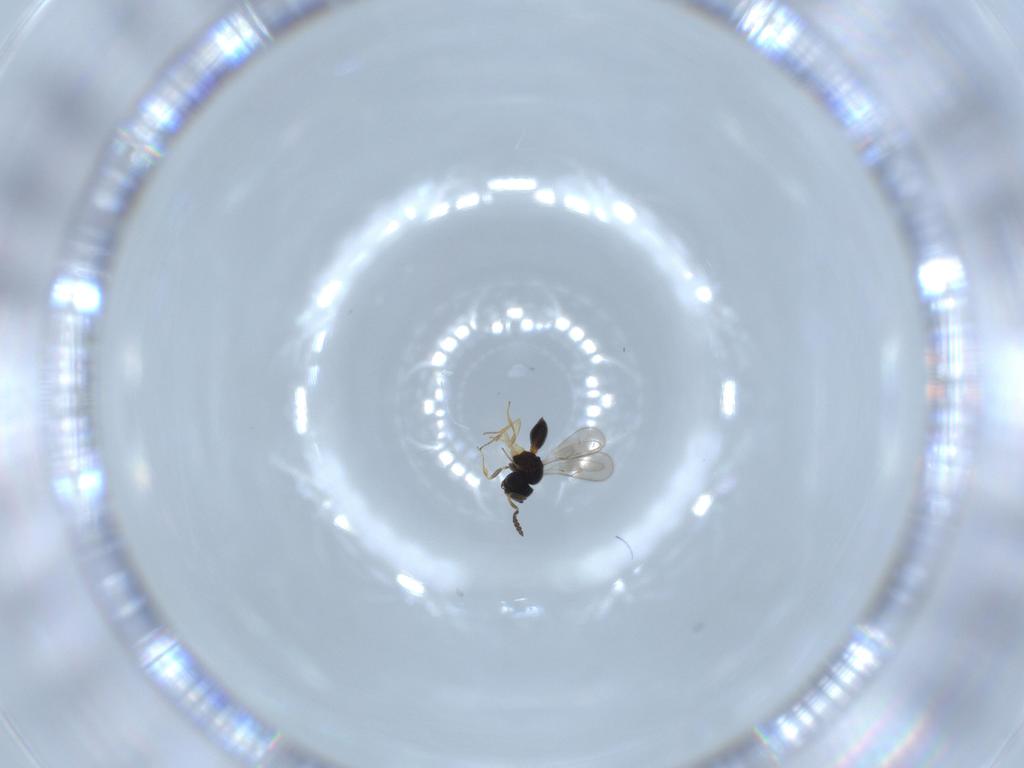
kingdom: Animalia
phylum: Arthropoda
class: Insecta
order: Hymenoptera
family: Scelionidae
